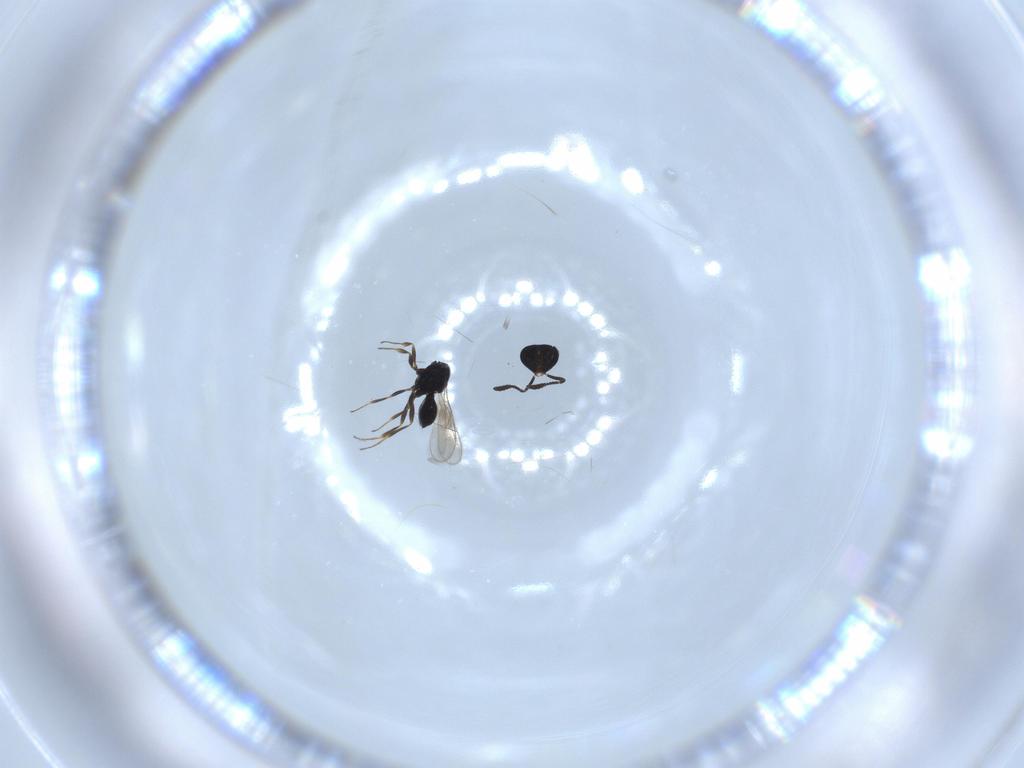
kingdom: Animalia
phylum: Arthropoda
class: Insecta
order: Hymenoptera
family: Scelionidae
